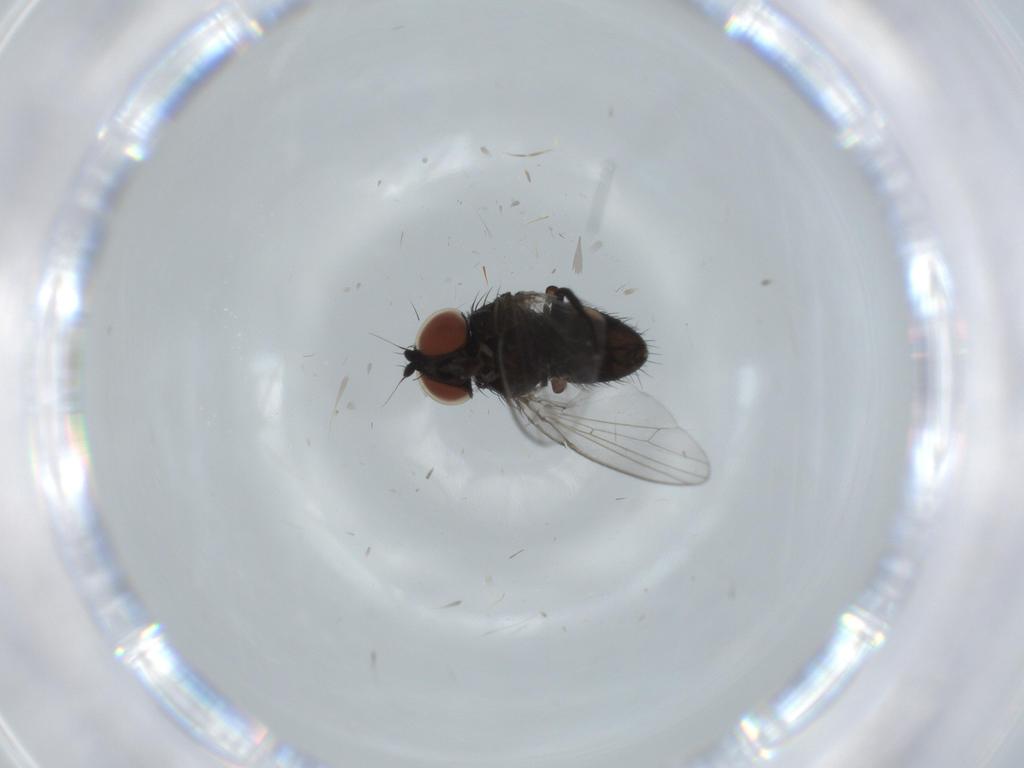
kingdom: Animalia
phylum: Arthropoda
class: Insecta
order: Diptera
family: Milichiidae
